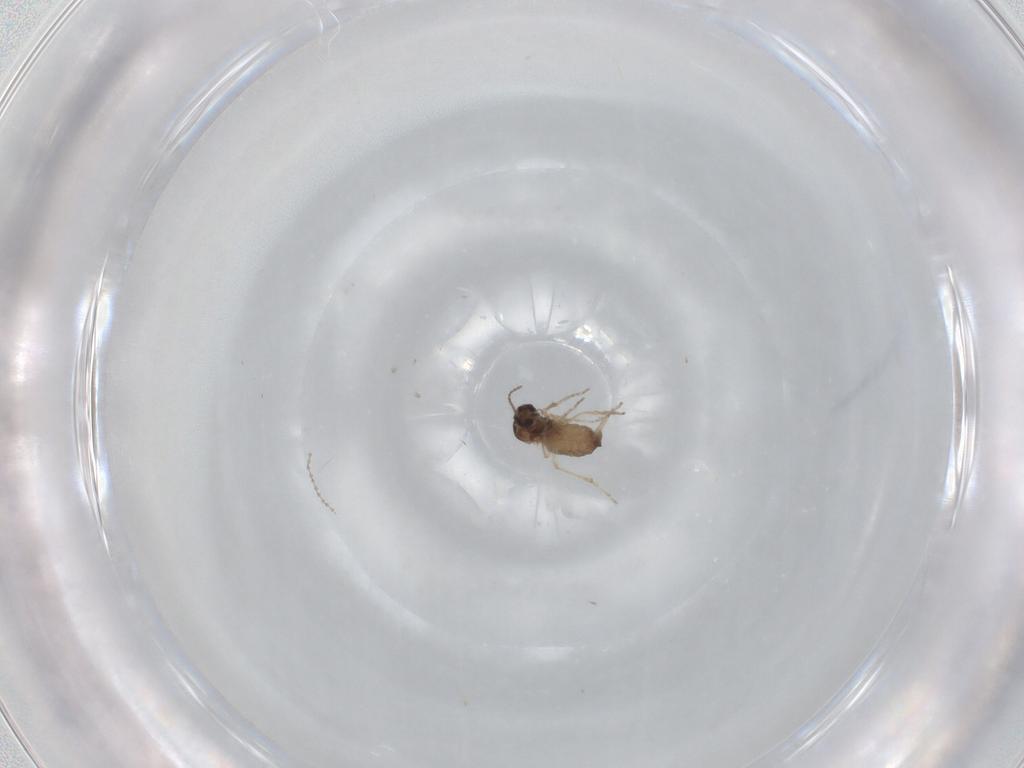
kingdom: Animalia
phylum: Arthropoda
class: Insecta
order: Diptera
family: Ceratopogonidae
